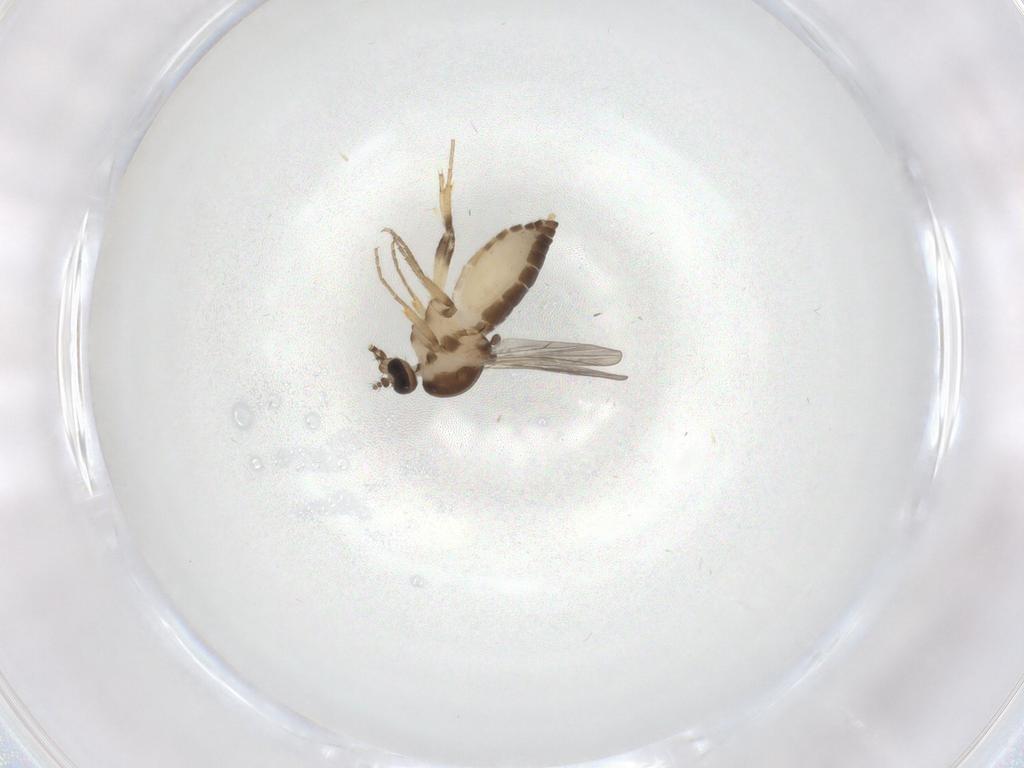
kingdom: Animalia
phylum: Arthropoda
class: Insecta
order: Diptera
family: Ceratopogonidae
